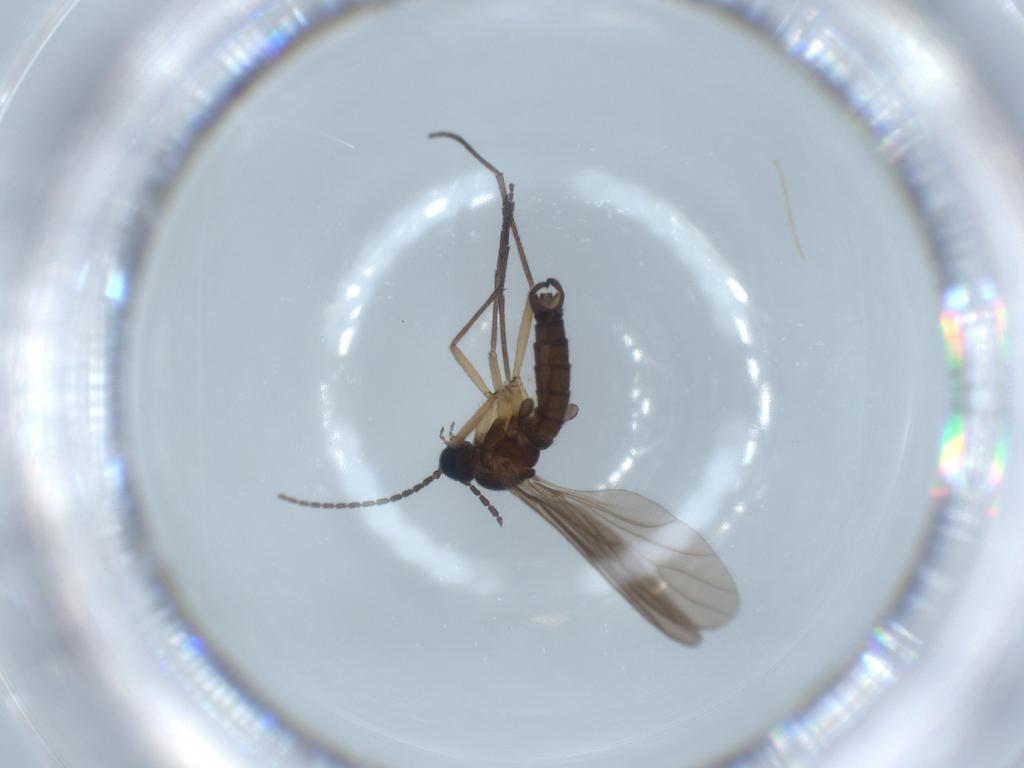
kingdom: Animalia
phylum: Arthropoda
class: Insecta
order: Diptera
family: Sciaridae
